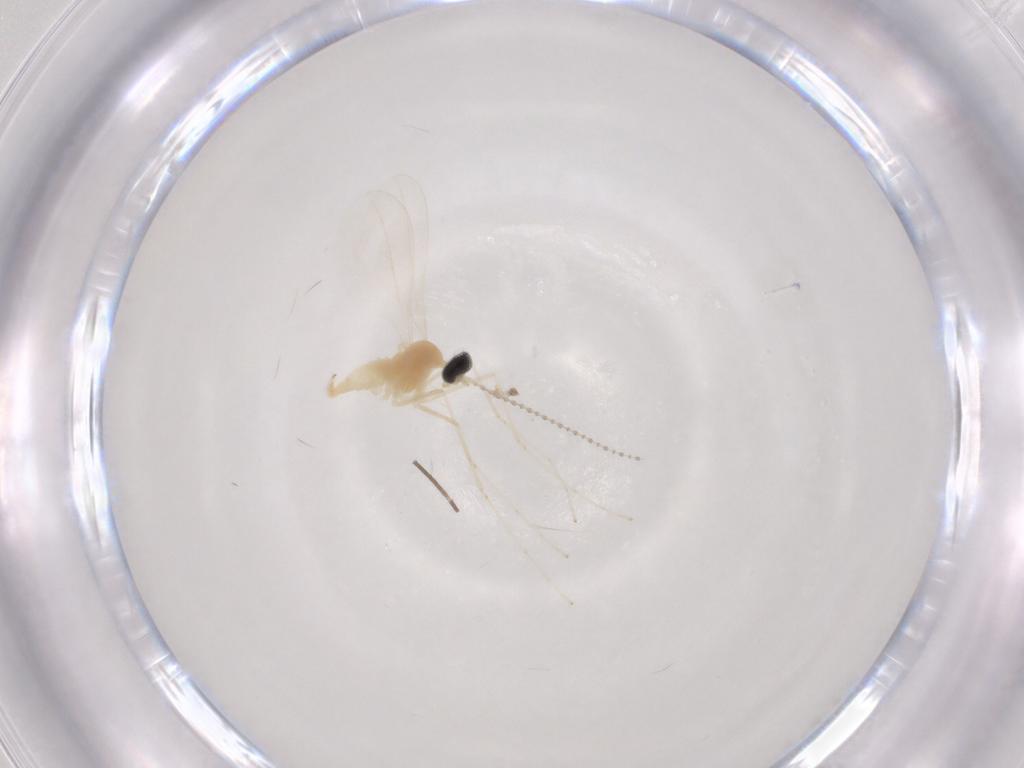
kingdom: Animalia
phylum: Arthropoda
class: Insecta
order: Diptera
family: Cecidomyiidae
